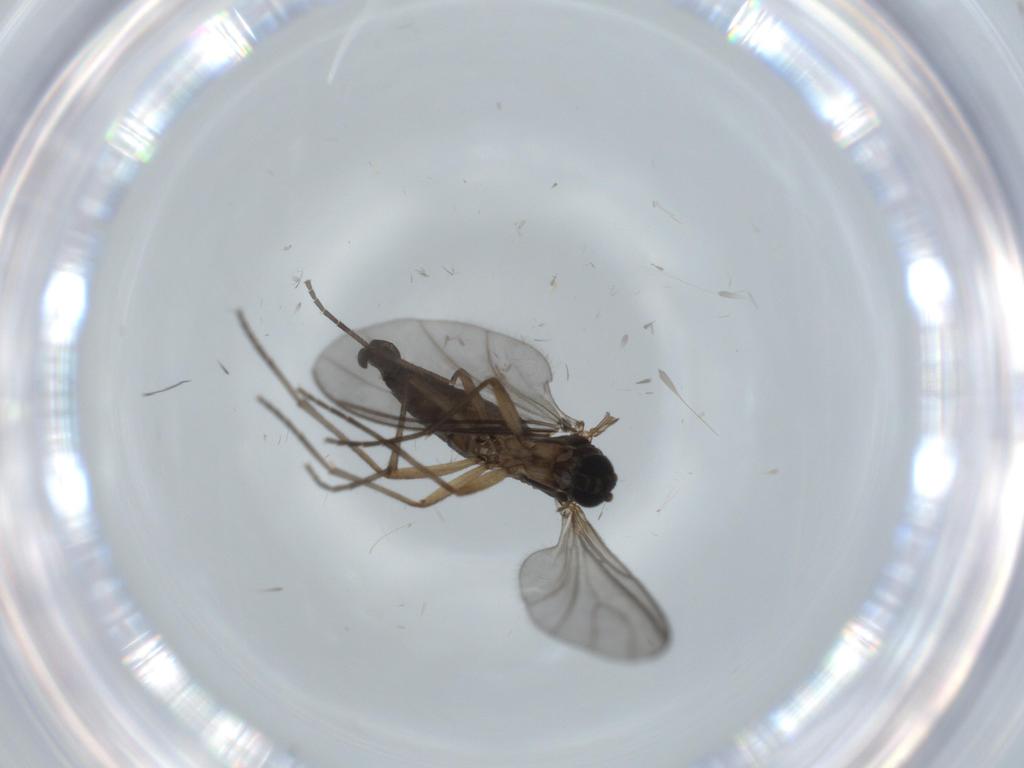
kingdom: Animalia
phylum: Arthropoda
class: Insecta
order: Diptera
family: Sciaridae
